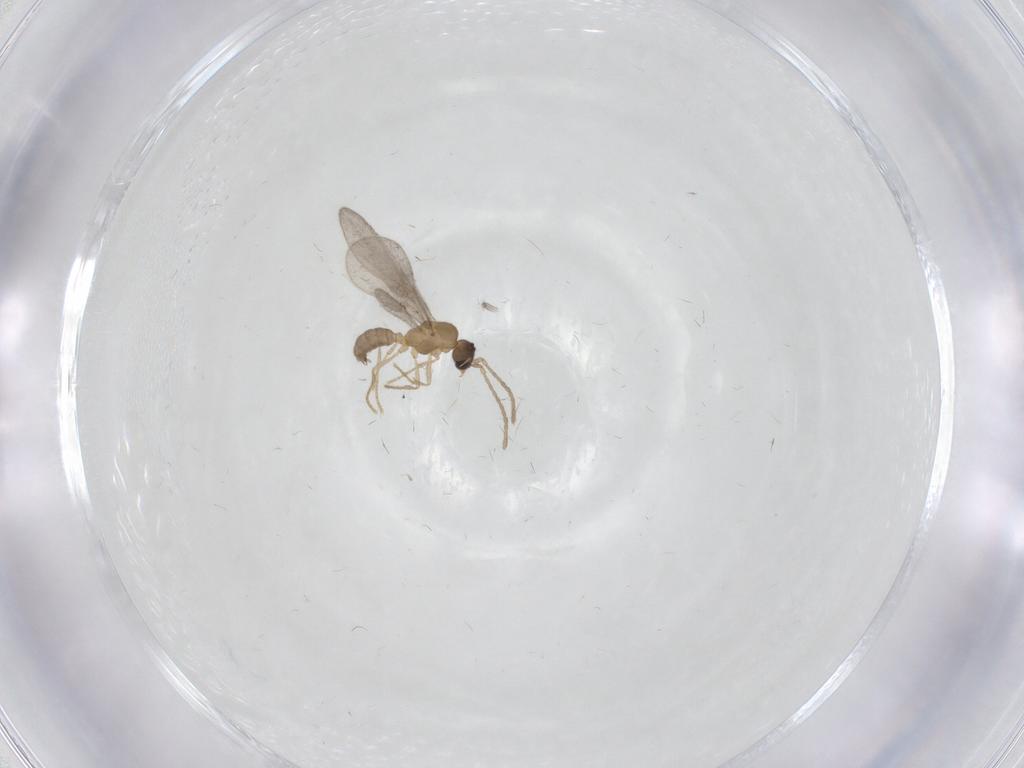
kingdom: Animalia
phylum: Arthropoda
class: Insecta
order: Hymenoptera
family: Formicidae
